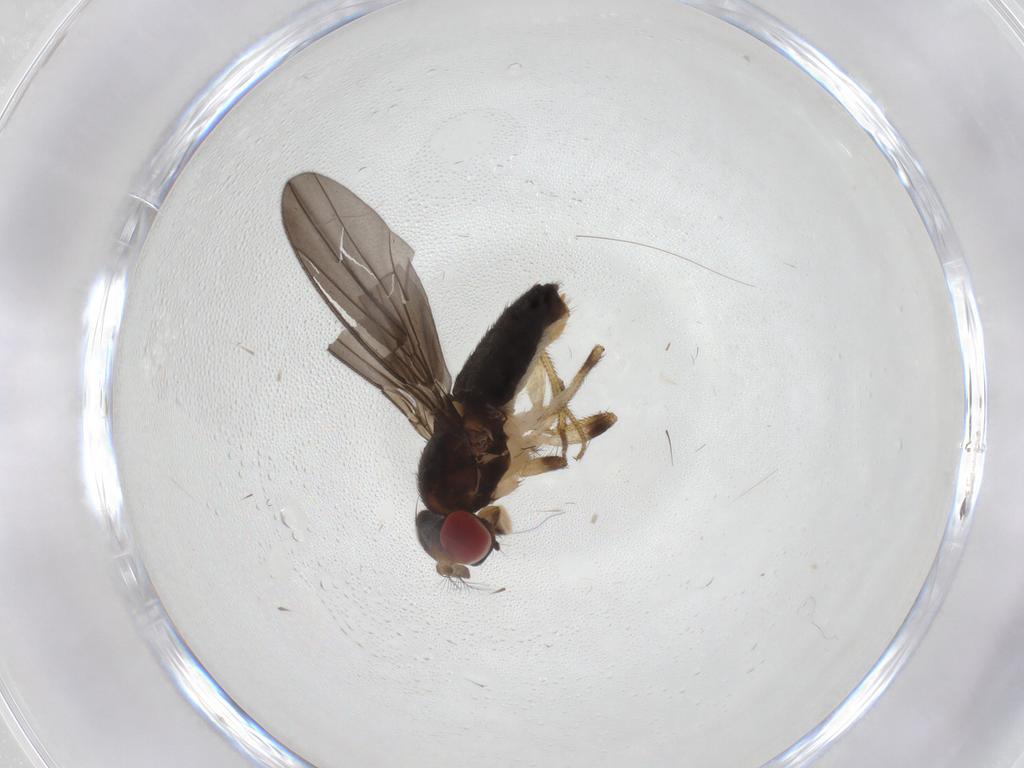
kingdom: Animalia
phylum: Arthropoda
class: Insecta
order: Diptera
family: Drosophilidae
